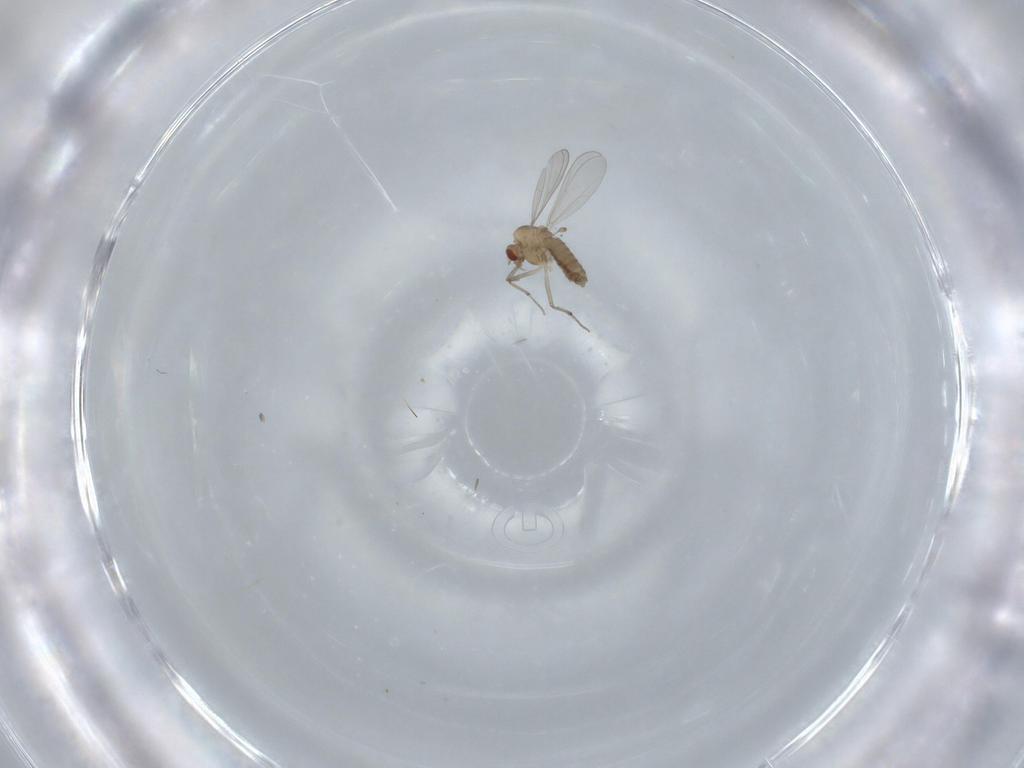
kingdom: Animalia
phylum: Arthropoda
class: Insecta
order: Diptera
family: Chironomidae
